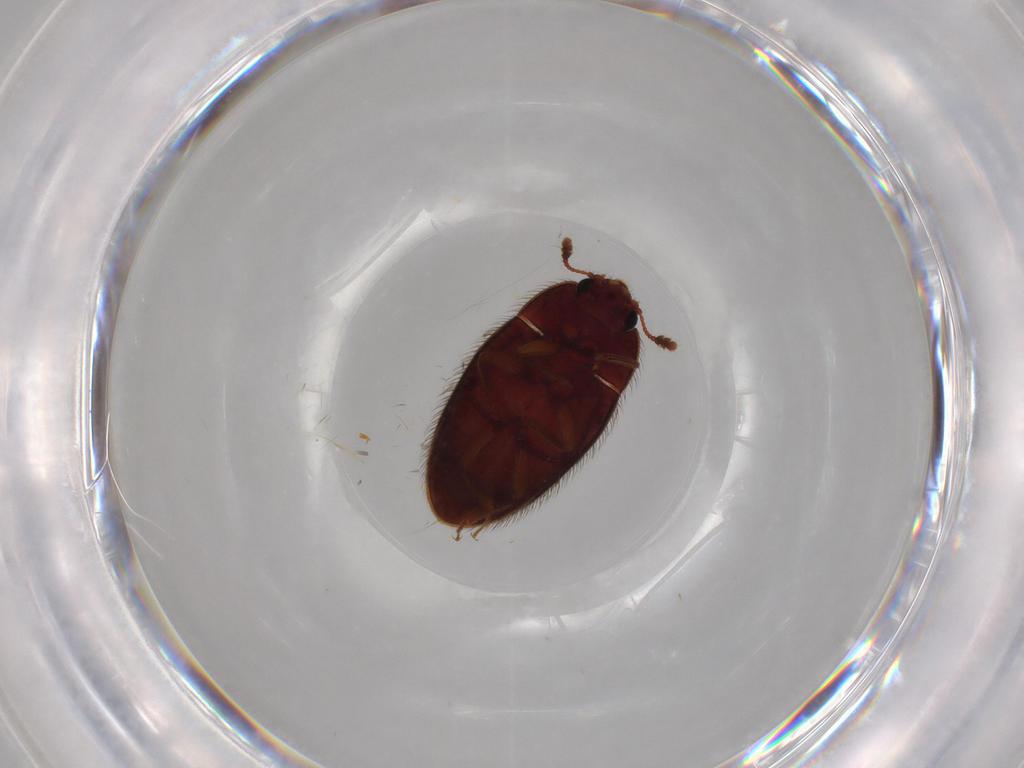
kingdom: Animalia
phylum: Arthropoda
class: Insecta
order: Coleoptera
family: Biphyllidae
